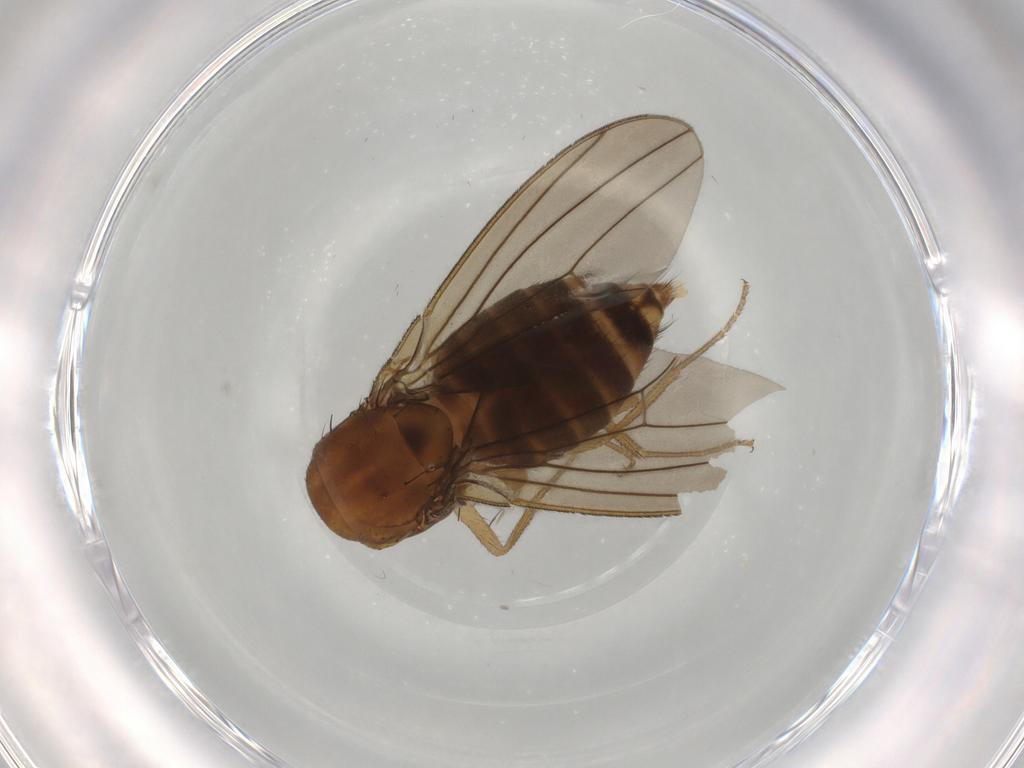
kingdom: Animalia
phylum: Arthropoda
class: Insecta
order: Diptera
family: Drosophilidae
